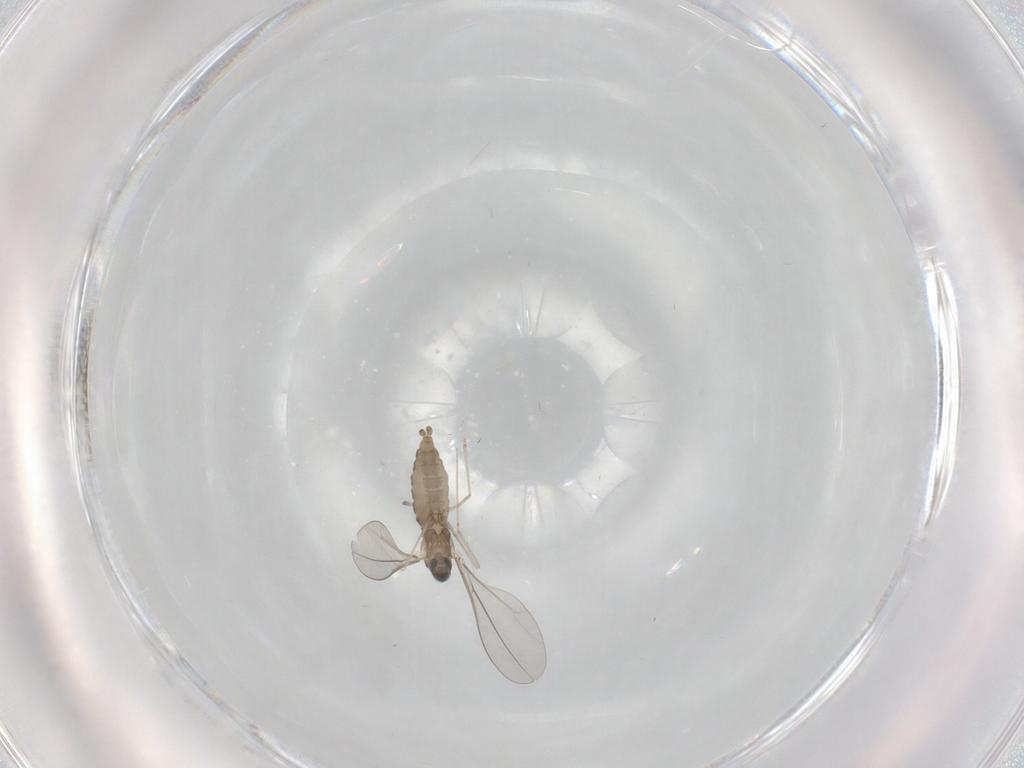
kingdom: Animalia
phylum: Arthropoda
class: Insecta
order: Diptera
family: Cecidomyiidae
